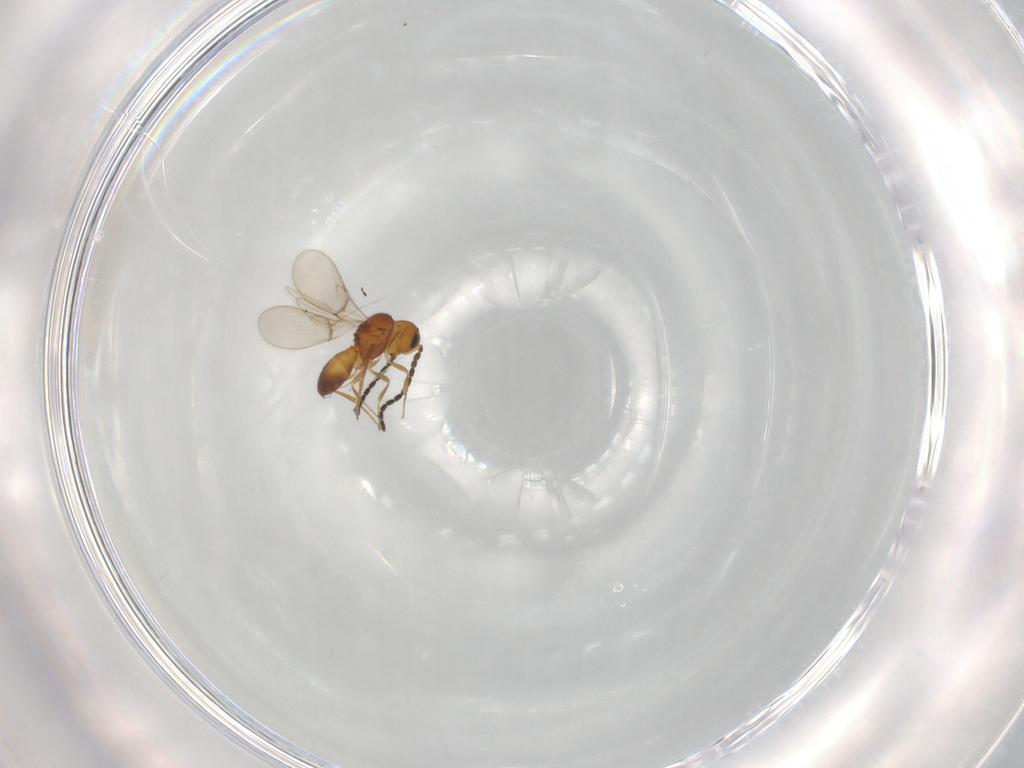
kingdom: Animalia
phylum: Arthropoda
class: Insecta
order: Hymenoptera
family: Scelionidae
